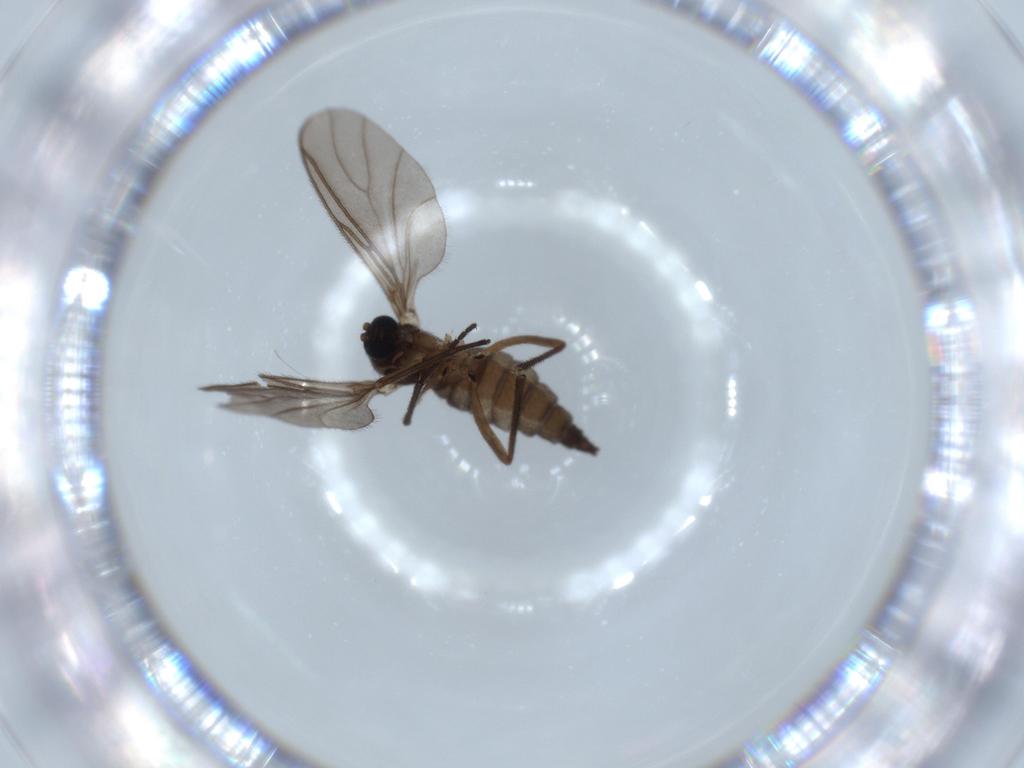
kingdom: Animalia
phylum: Arthropoda
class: Insecta
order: Diptera
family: Sciaridae
